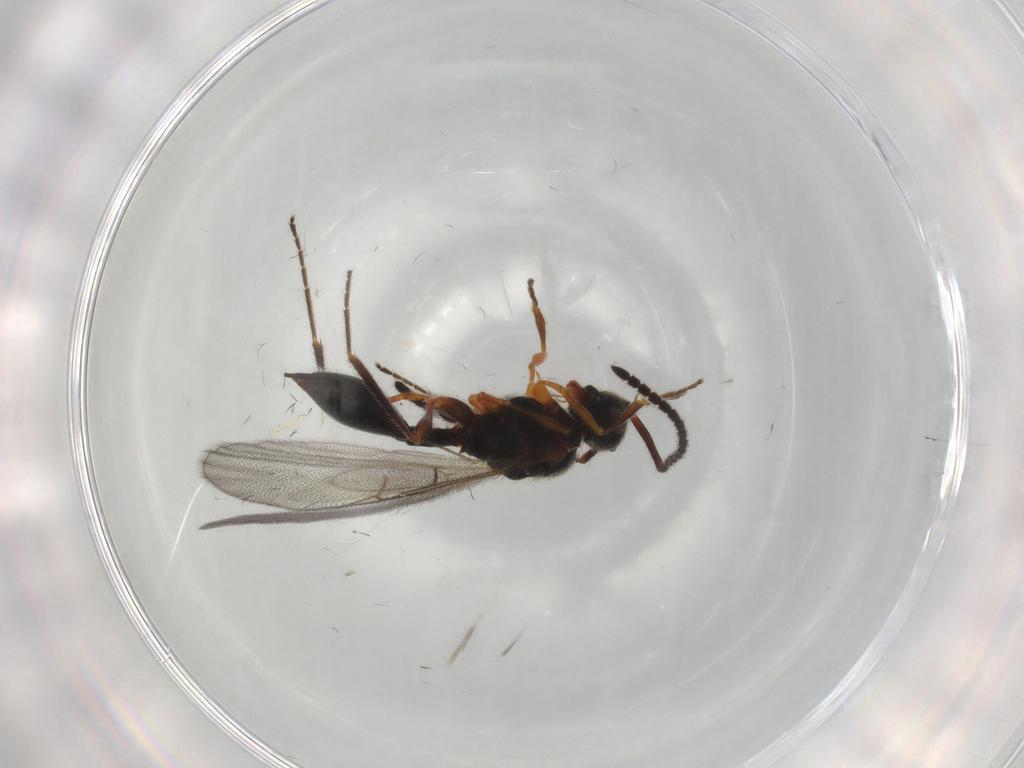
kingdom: Animalia
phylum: Arthropoda
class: Insecta
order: Hymenoptera
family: Diapriidae
